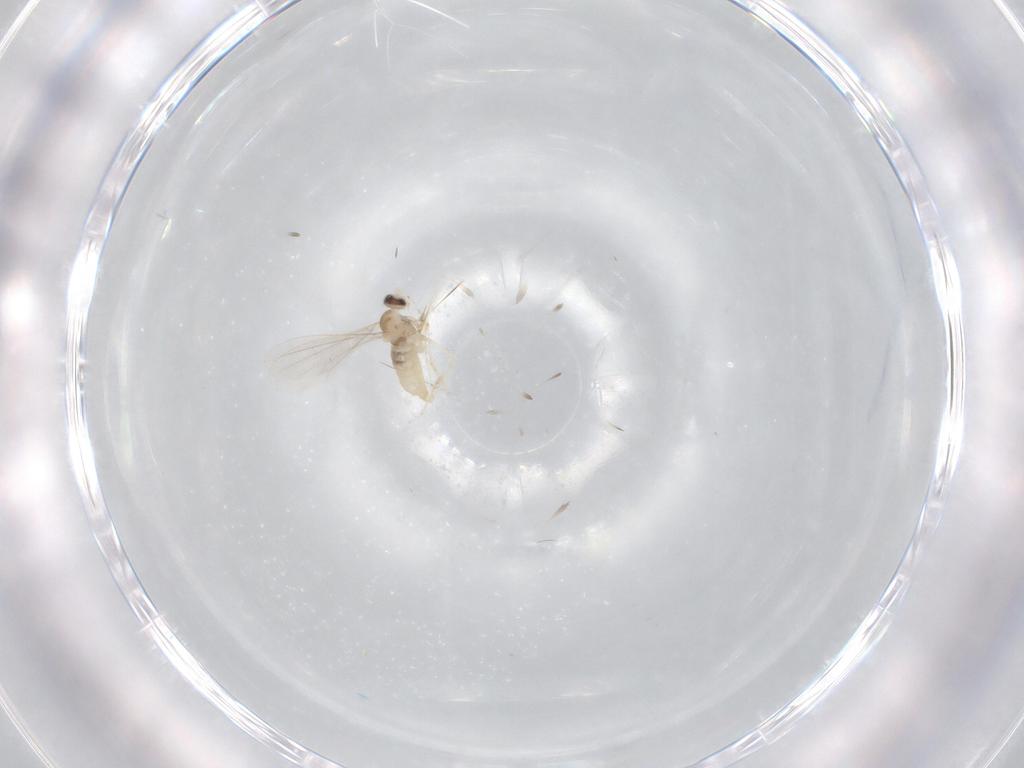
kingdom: Animalia
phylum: Arthropoda
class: Insecta
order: Diptera
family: Cecidomyiidae
